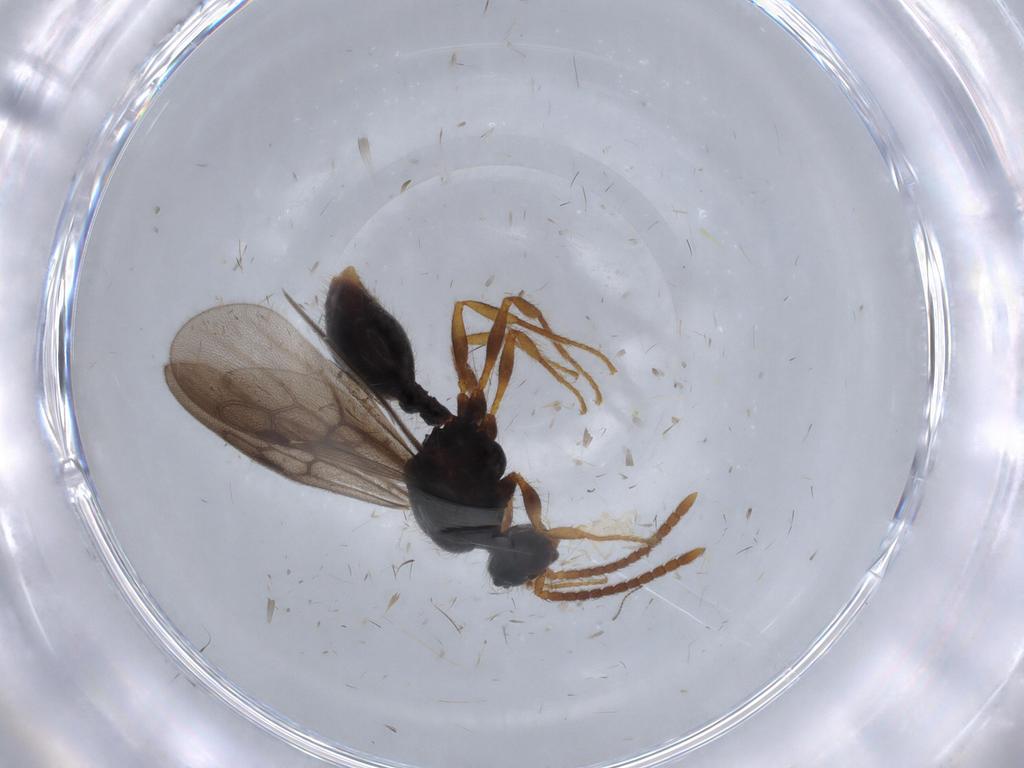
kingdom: Animalia
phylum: Arthropoda
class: Insecta
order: Hymenoptera
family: Formicidae
